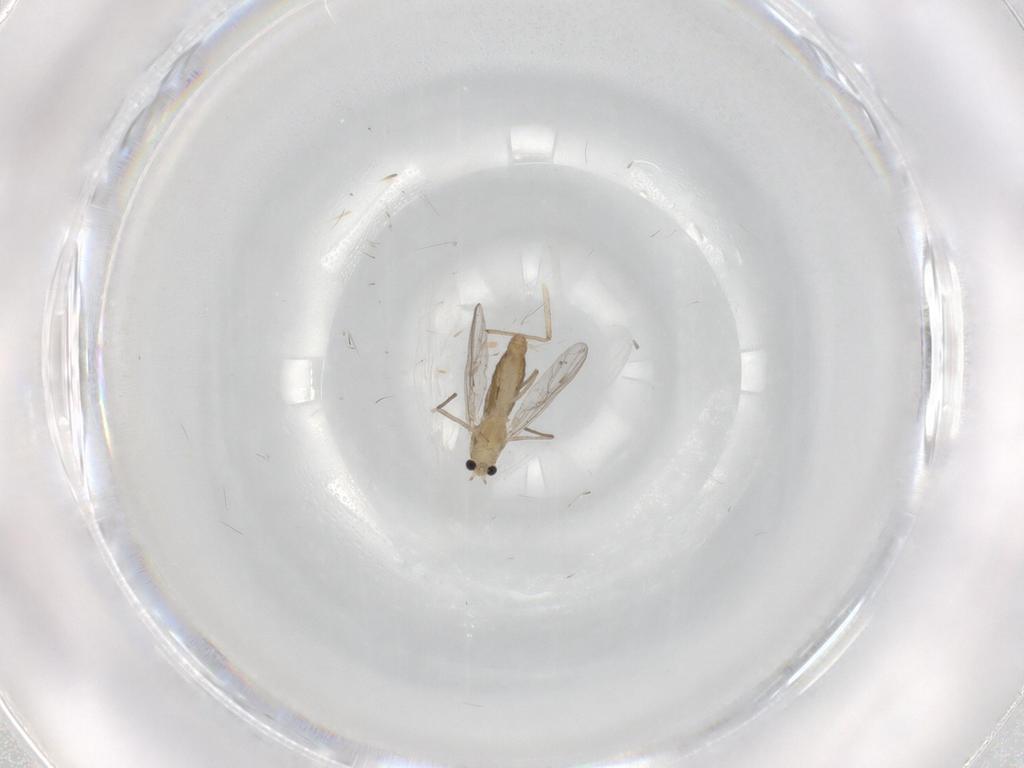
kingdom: Animalia
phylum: Arthropoda
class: Insecta
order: Diptera
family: Chironomidae
